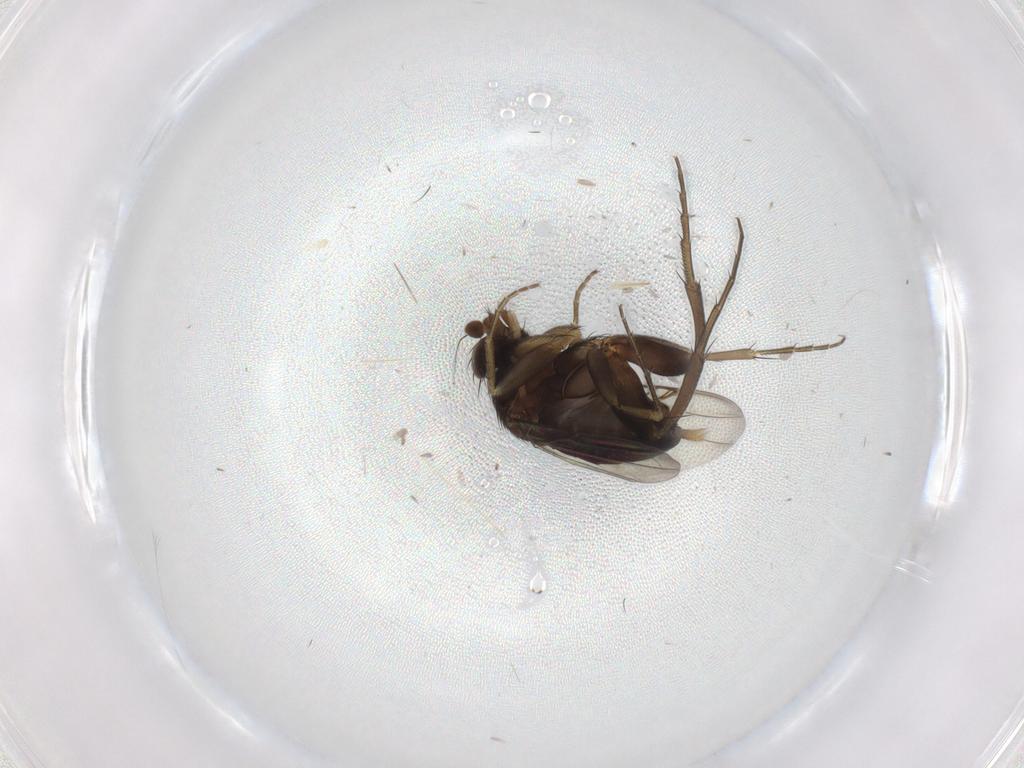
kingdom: Animalia
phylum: Arthropoda
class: Insecta
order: Diptera
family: Phoridae
